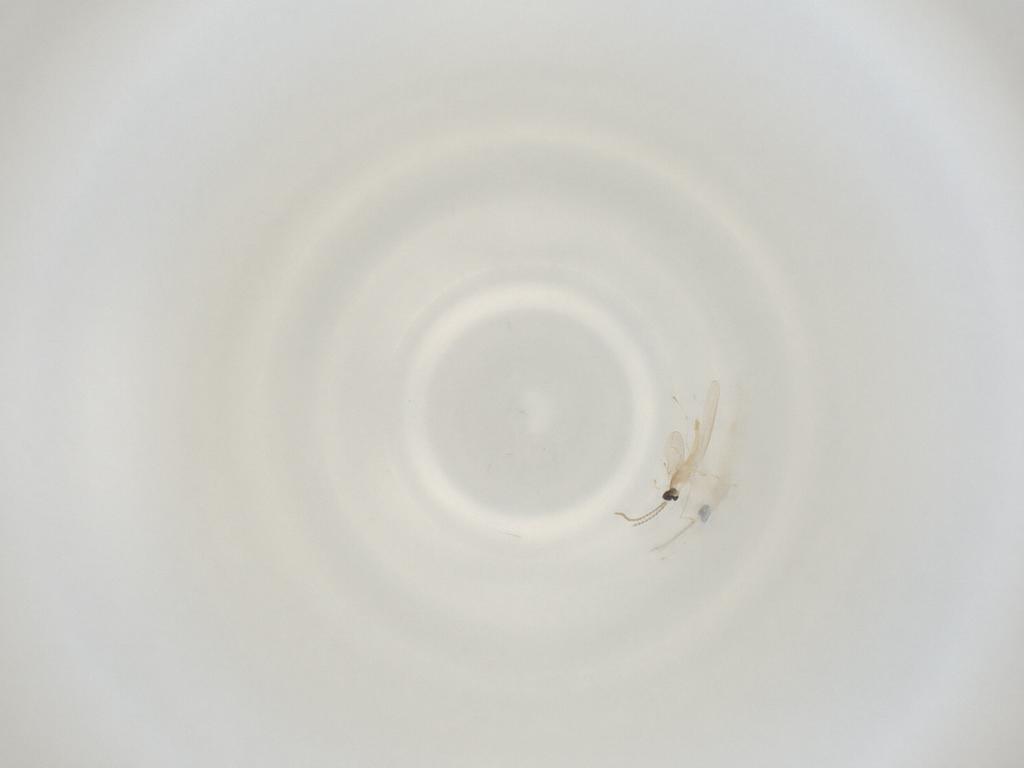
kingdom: Animalia
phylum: Arthropoda
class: Insecta
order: Diptera
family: Cecidomyiidae
